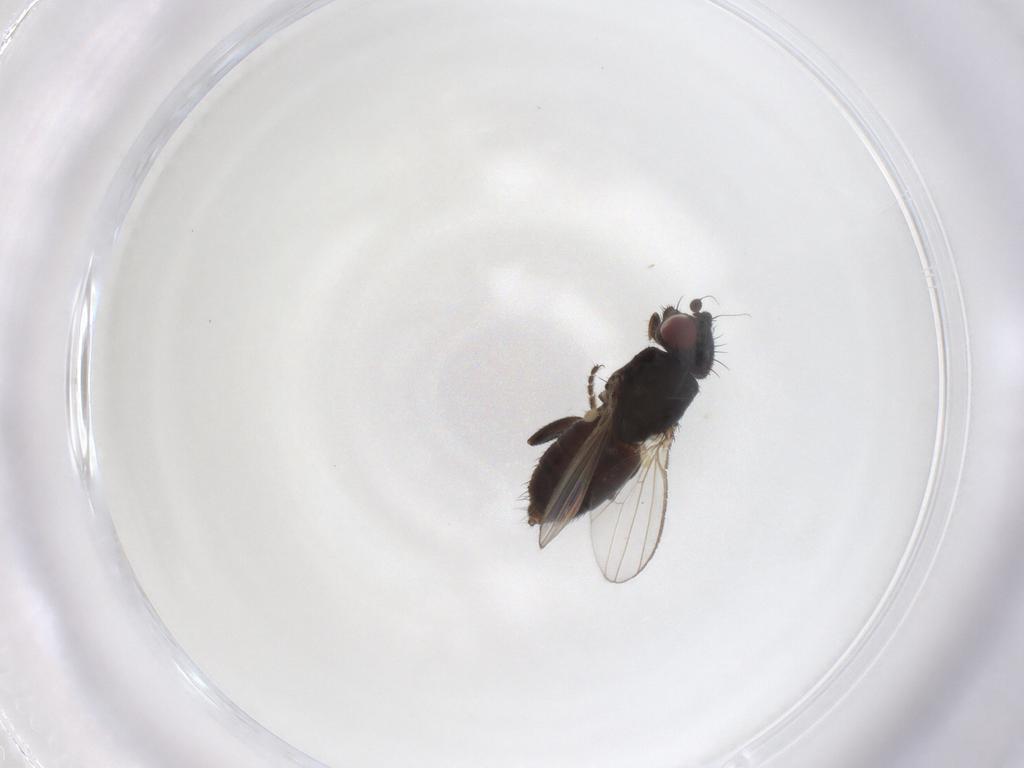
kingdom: Animalia
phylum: Arthropoda
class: Insecta
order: Diptera
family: Milichiidae
